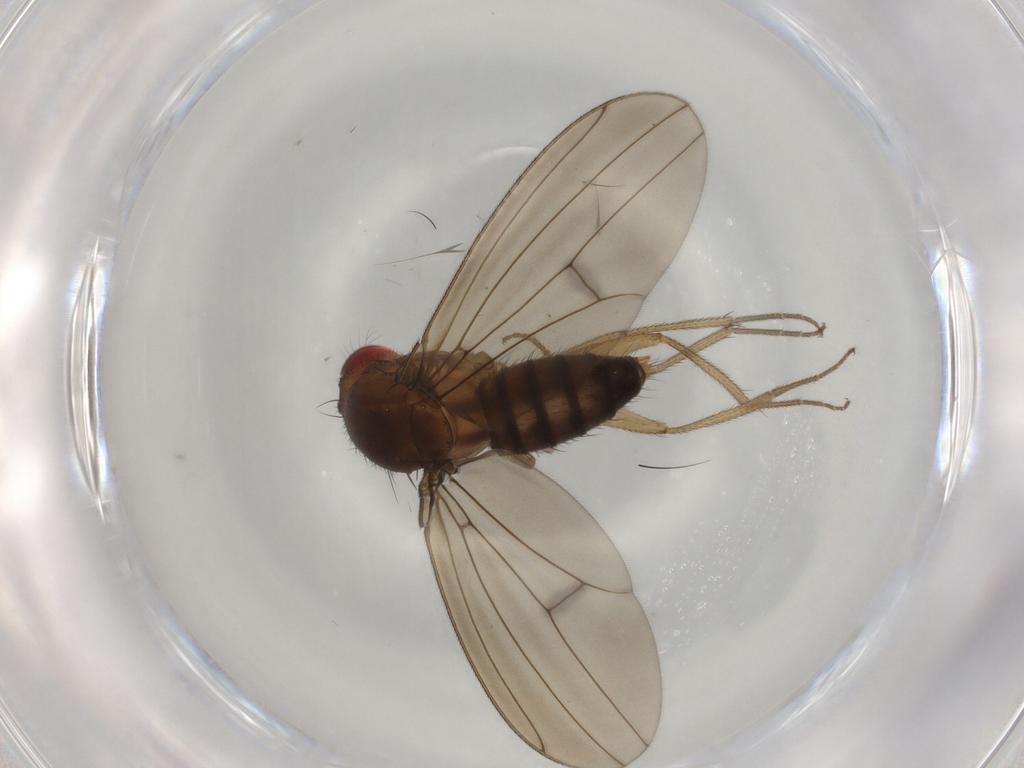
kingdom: Animalia
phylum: Arthropoda
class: Insecta
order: Diptera
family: Drosophilidae
